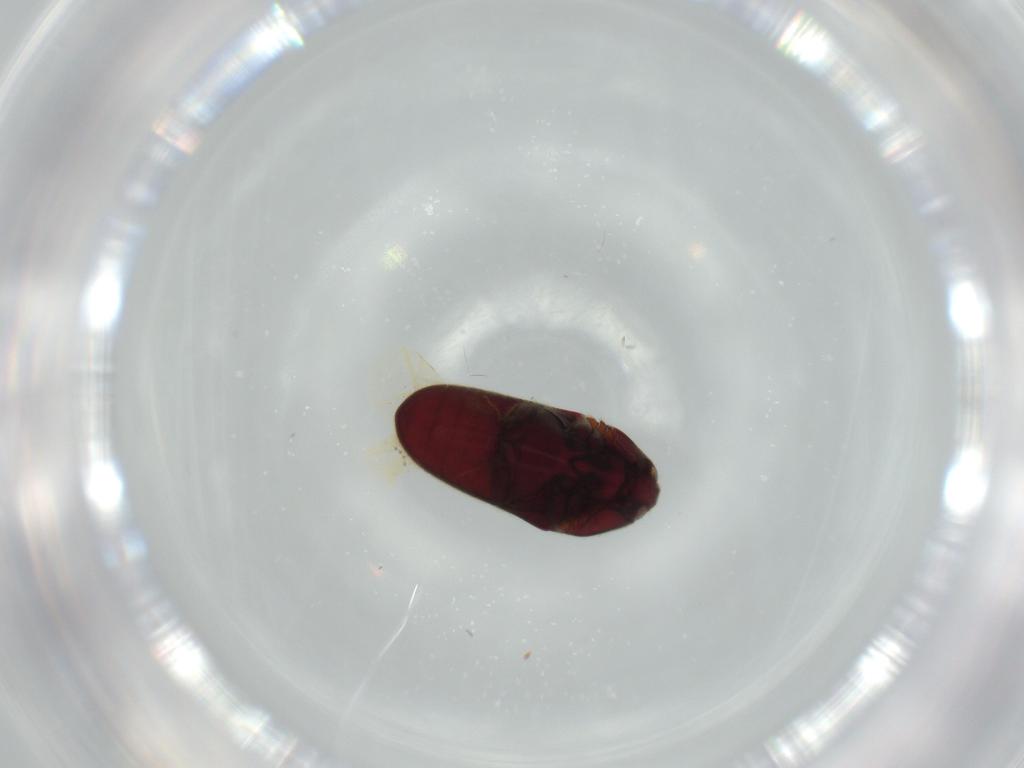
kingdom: Animalia
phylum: Arthropoda
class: Insecta
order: Coleoptera
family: Throscidae
